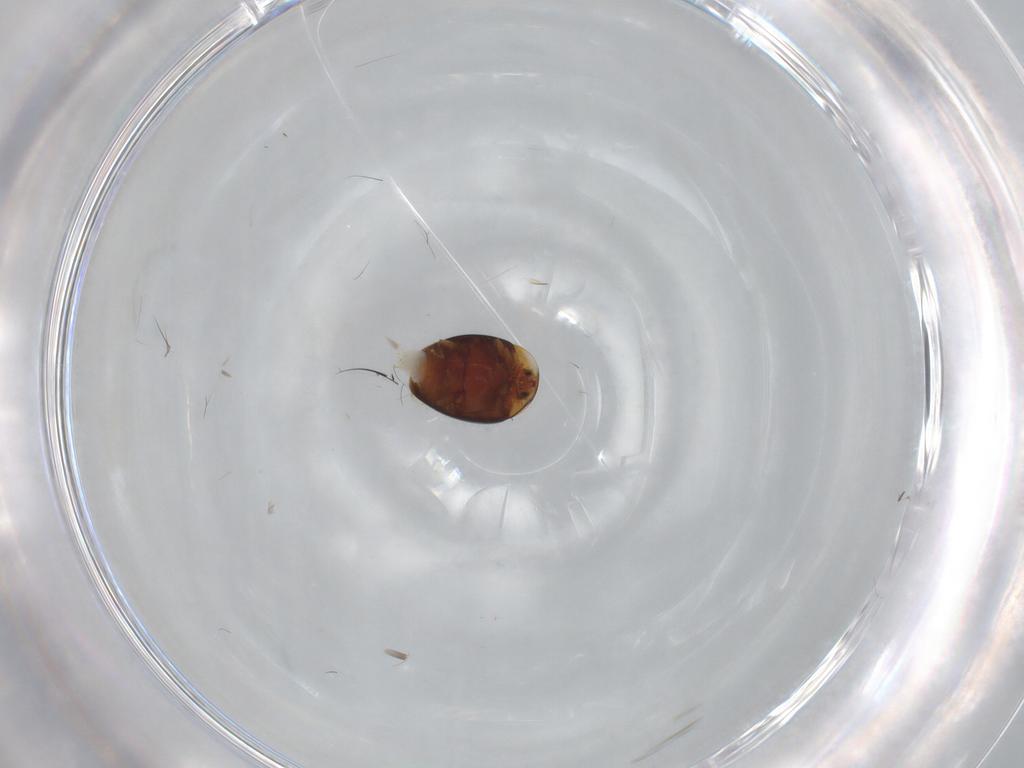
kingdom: Animalia
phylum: Arthropoda
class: Insecta
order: Coleoptera
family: Corylophidae
